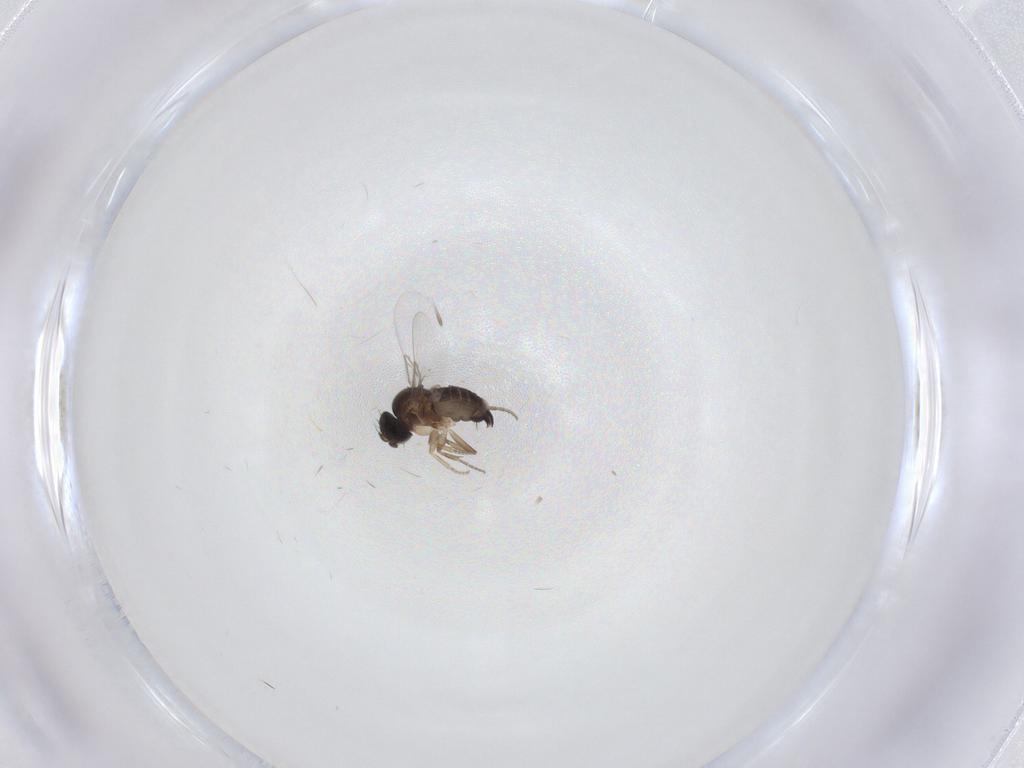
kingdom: Animalia
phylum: Arthropoda
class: Insecta
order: Diptera
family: Phoridae
